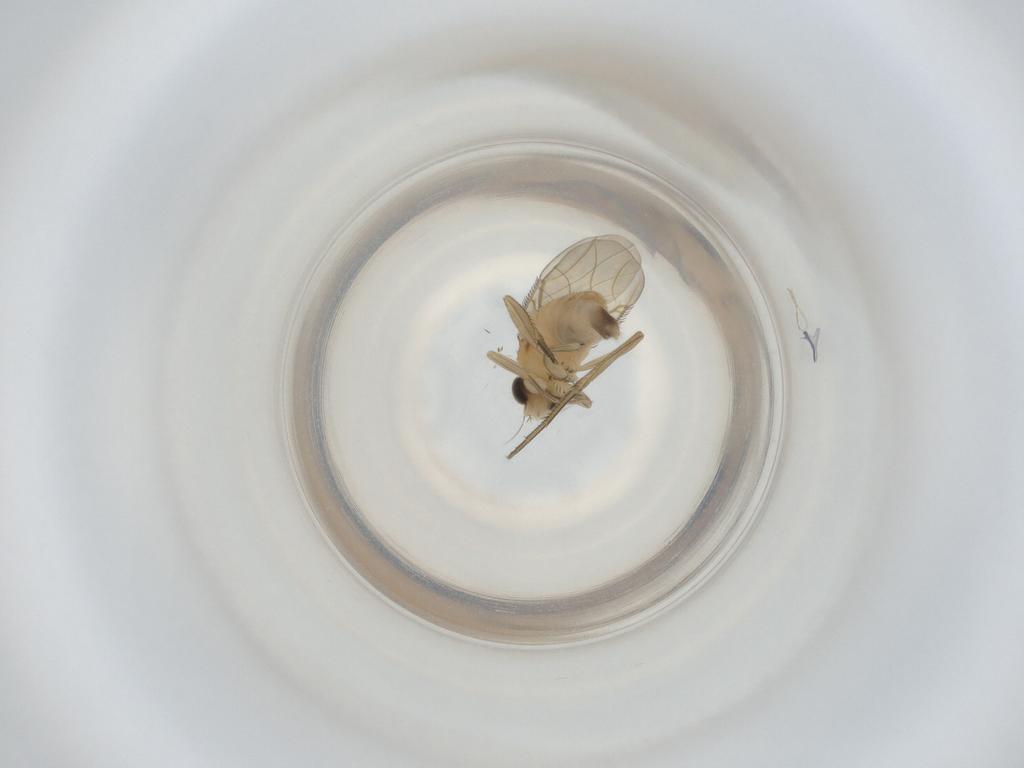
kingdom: Animalia
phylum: Arthropoda
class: Insecta
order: Diptera
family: Phoridae
